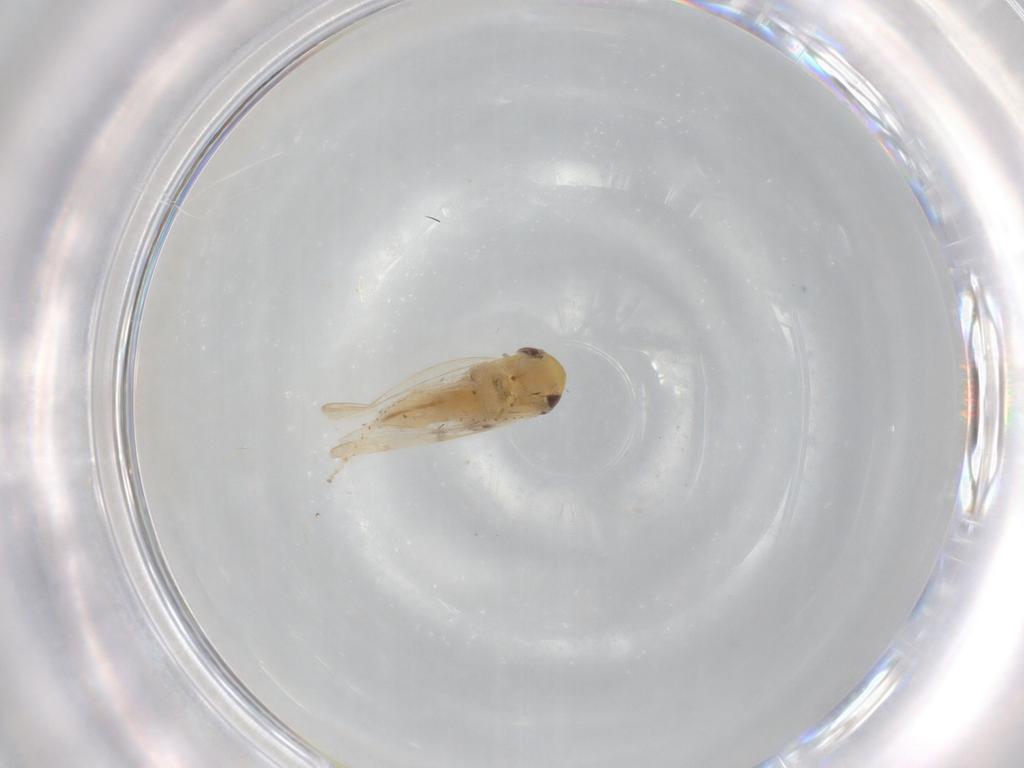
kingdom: Animalia
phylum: Arthropoda
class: Insecta
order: Hemiptera
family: Cicadellidae
